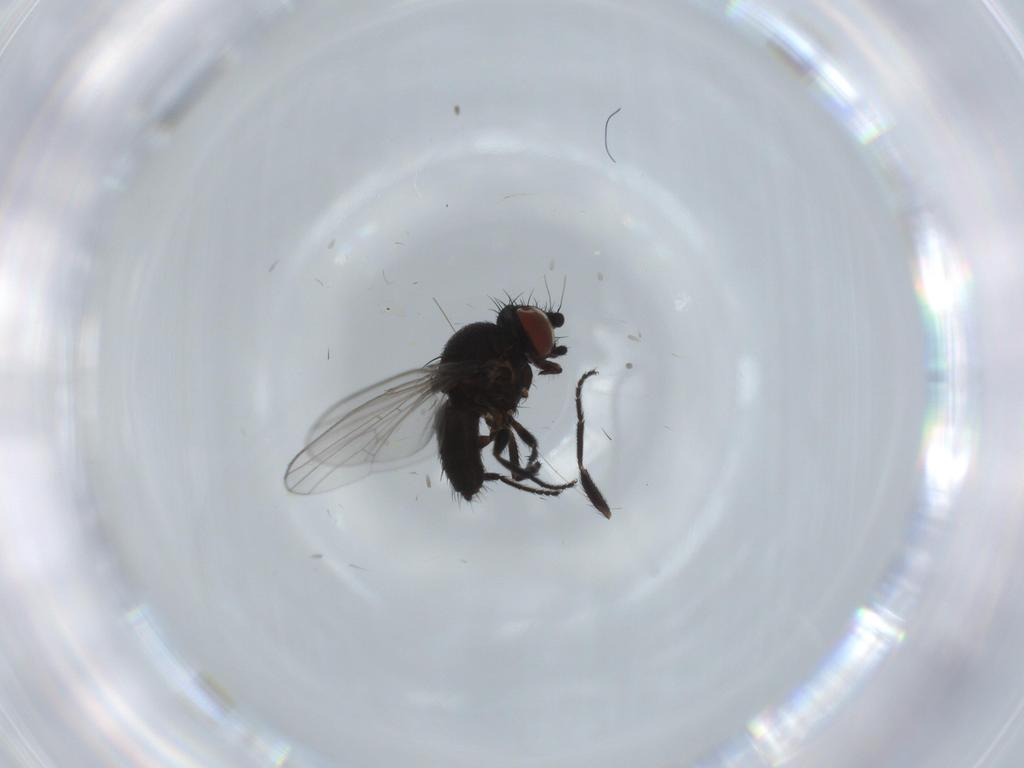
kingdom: Animalia
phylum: Arthropoda
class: Insecta
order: Diptera
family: Milichiidae
